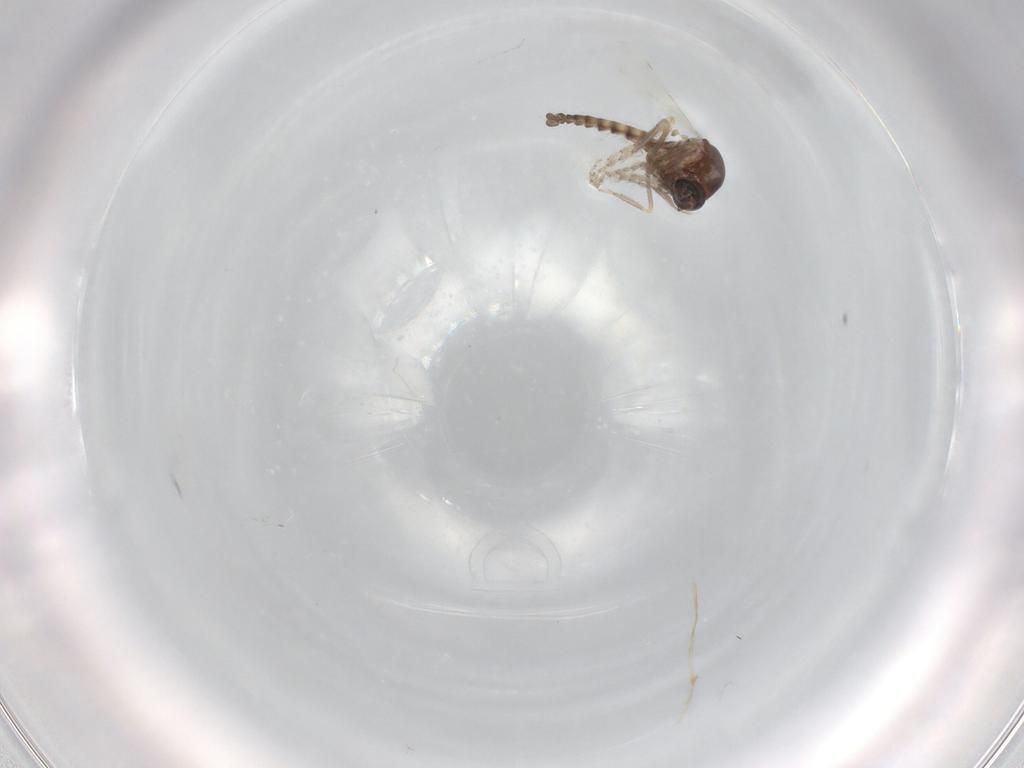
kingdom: Animalia
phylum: Arthropoda
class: Insecta
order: Diptera
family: Ceratopogonidae
